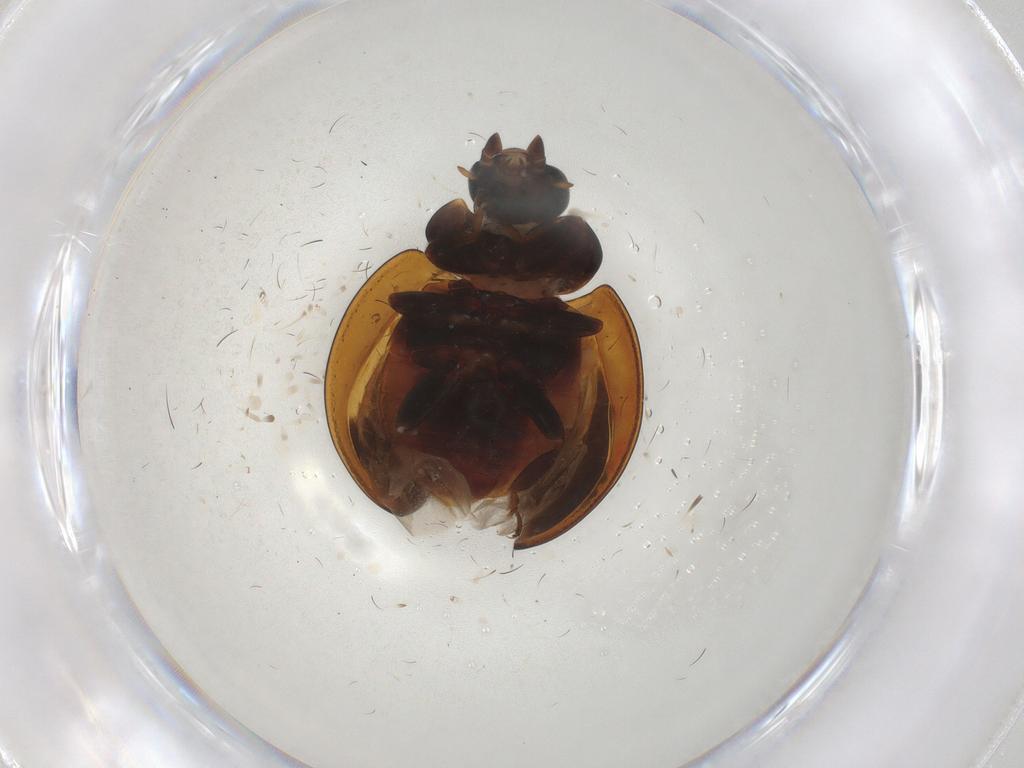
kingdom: Animalia
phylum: Arthropoda
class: Insecta
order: Coleoptera
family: Coccinellidae
